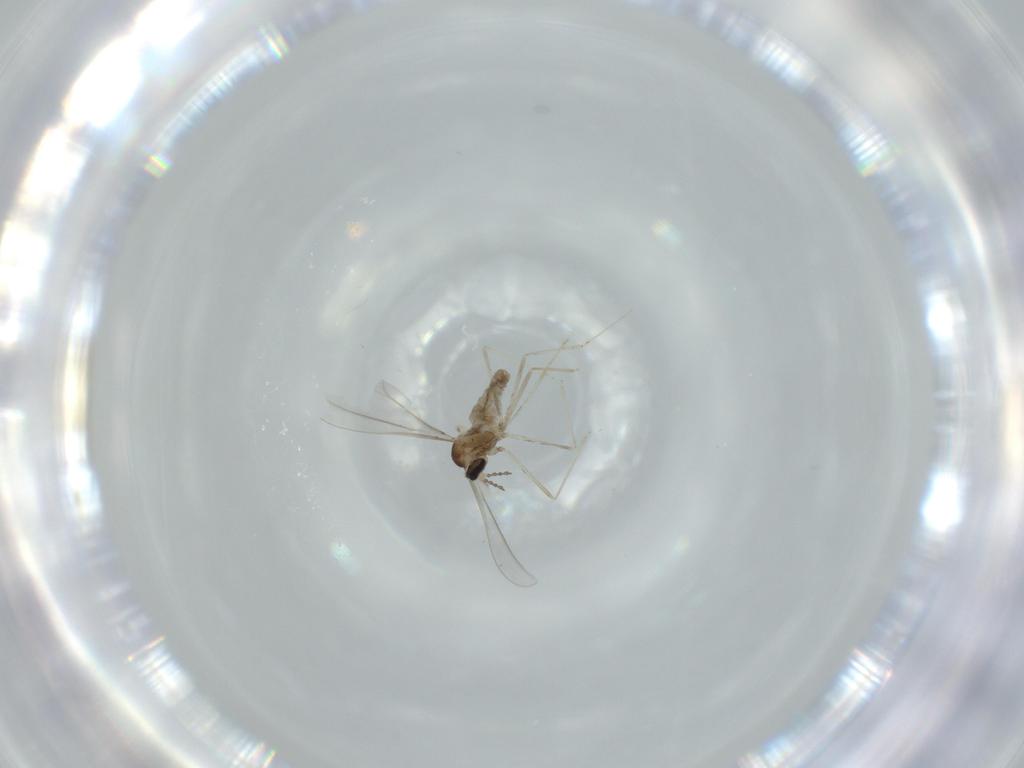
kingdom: Animalia
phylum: Arthropoda
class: Insecta
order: Diptera
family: Cecidomyiidae
